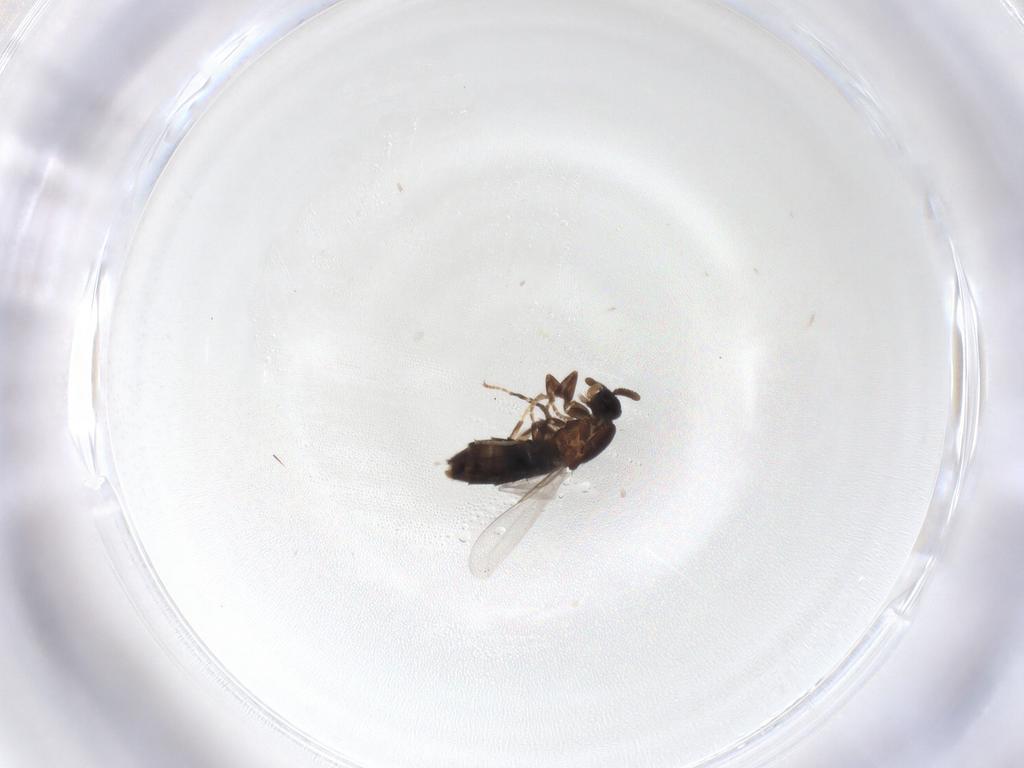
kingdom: Animalia
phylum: Arthropoda
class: Insecta
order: Diptera
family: Scatopsidae
